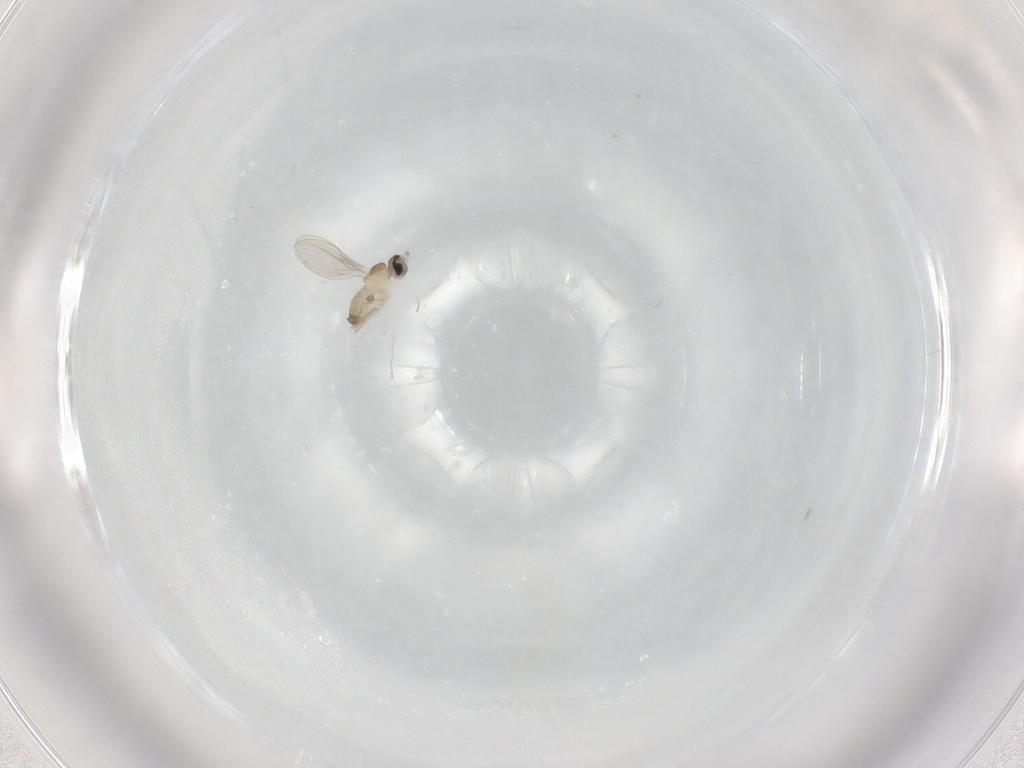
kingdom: Animalia
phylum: Arthropoda
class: Insecta
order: Diptera
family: Cecidomyiidae
